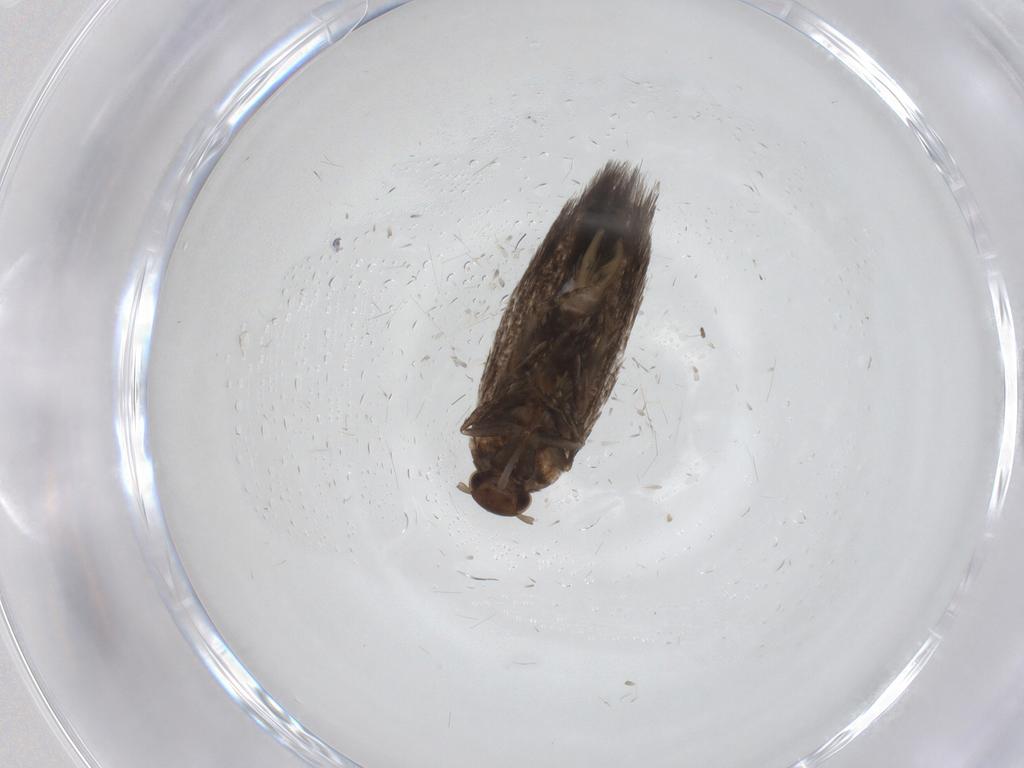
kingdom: Animalia
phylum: Arthropoda
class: Insecta
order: Lepidoptera
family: Elachistidae
